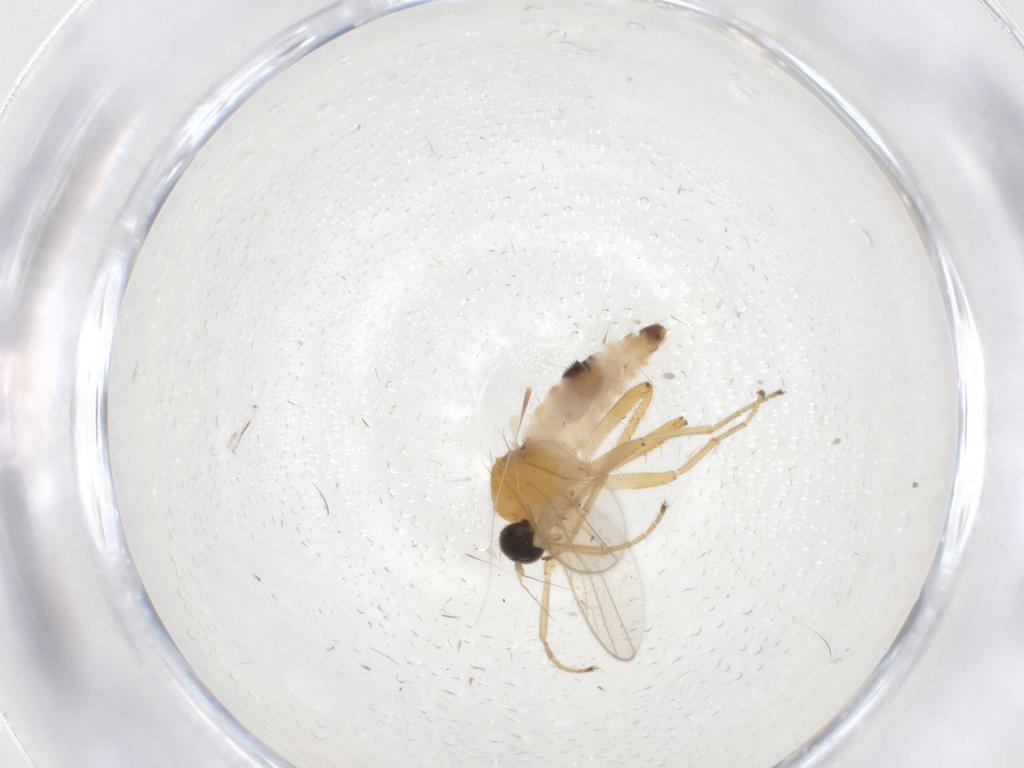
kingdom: Animalia
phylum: Arthropoda
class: Insecta
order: Diptera
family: Hybotidae
